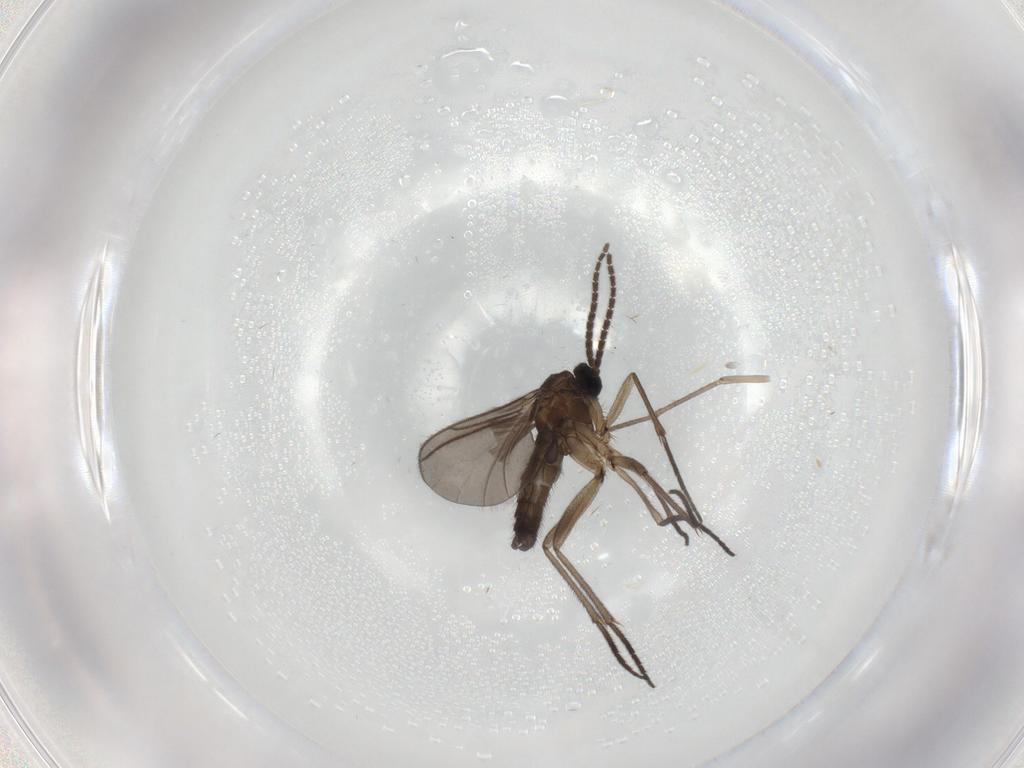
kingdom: Animalia
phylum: Arthropoda
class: Insecta
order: Diptera
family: Sciaridae
